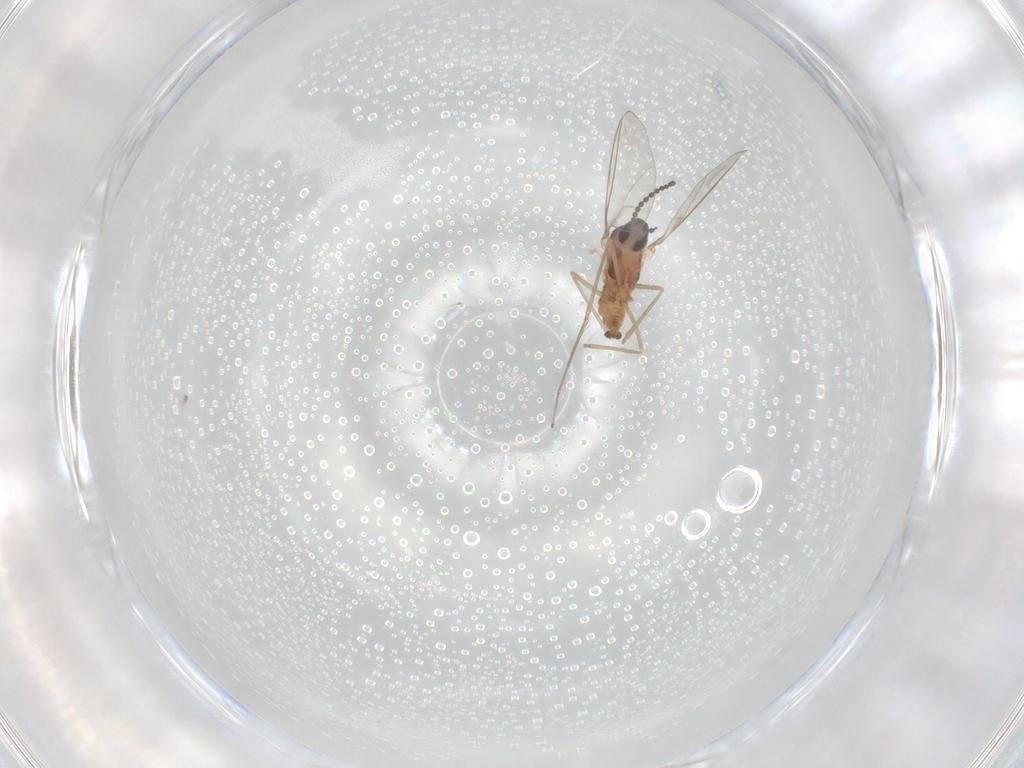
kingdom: Animalia
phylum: Arthropoda
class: Insecta
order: Diptera
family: Cecidomyiidae
